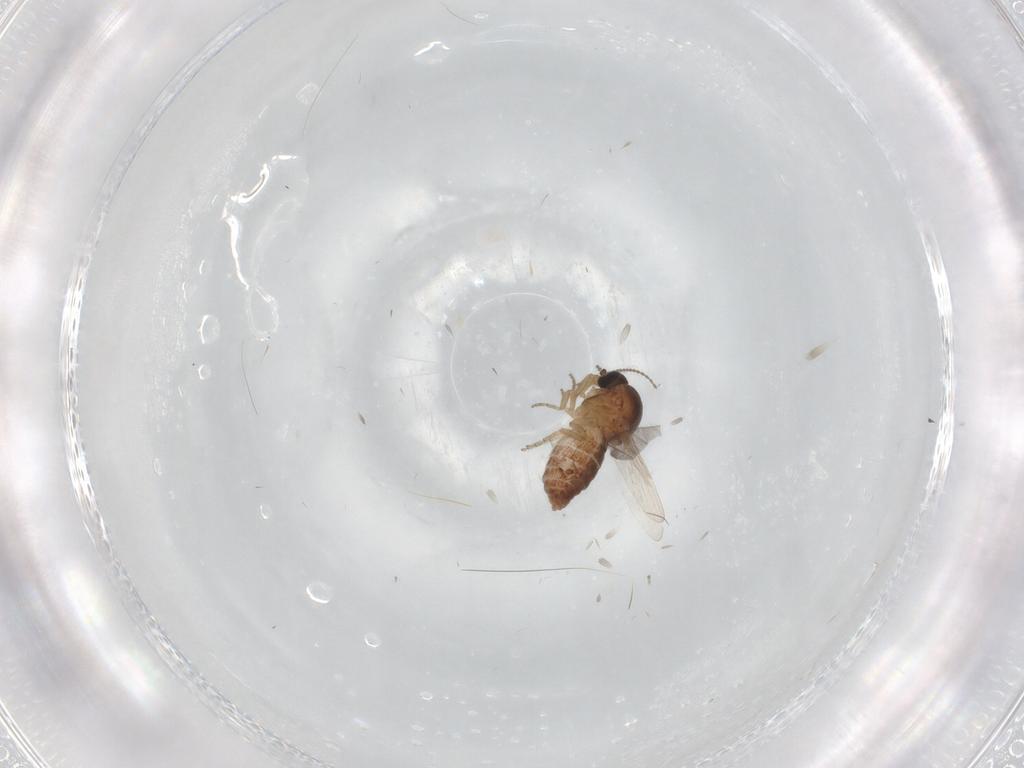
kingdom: Animalia
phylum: Arthropoda
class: Insecta
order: Diptera
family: Ceratopogonidae
